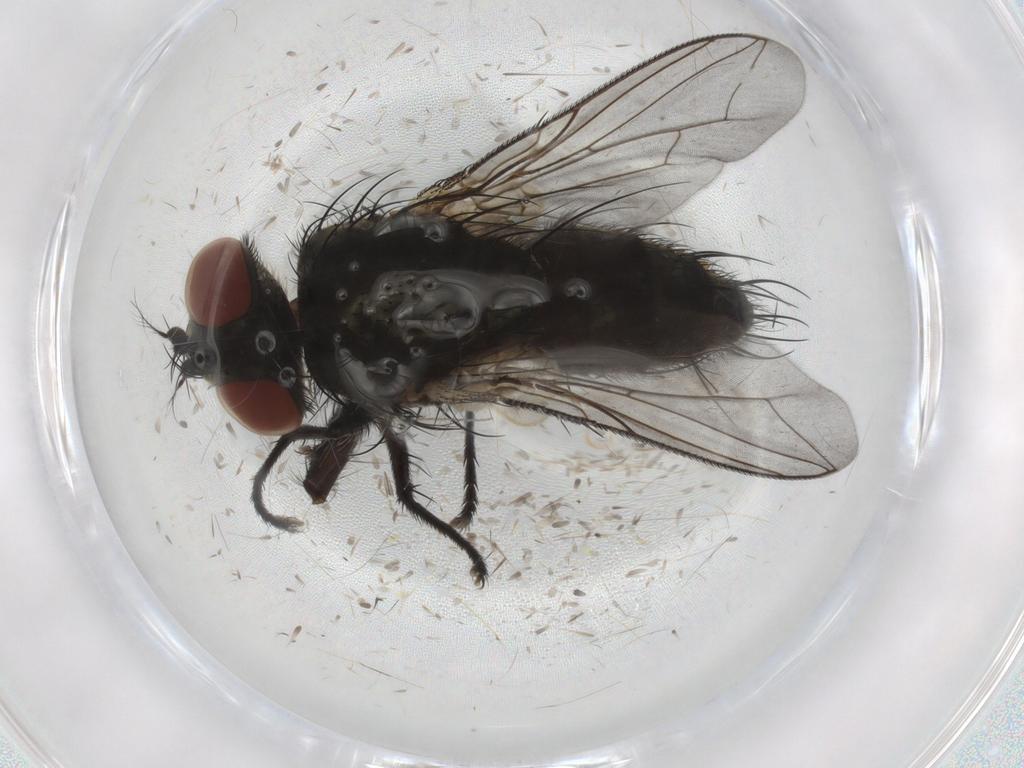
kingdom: Animalia
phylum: Arthropoda
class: Insecta
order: Diptera
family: Sarcophagidae
